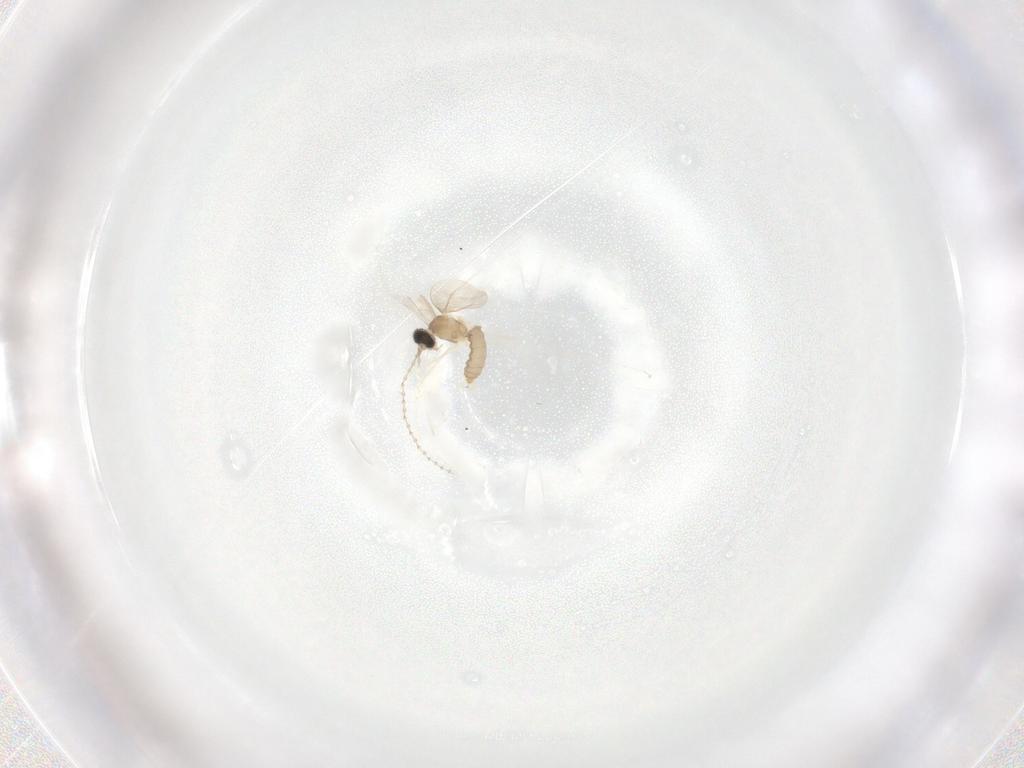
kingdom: Animalia
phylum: Arthropoda
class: Insecta
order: Diptera
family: Cecidomyiidae
